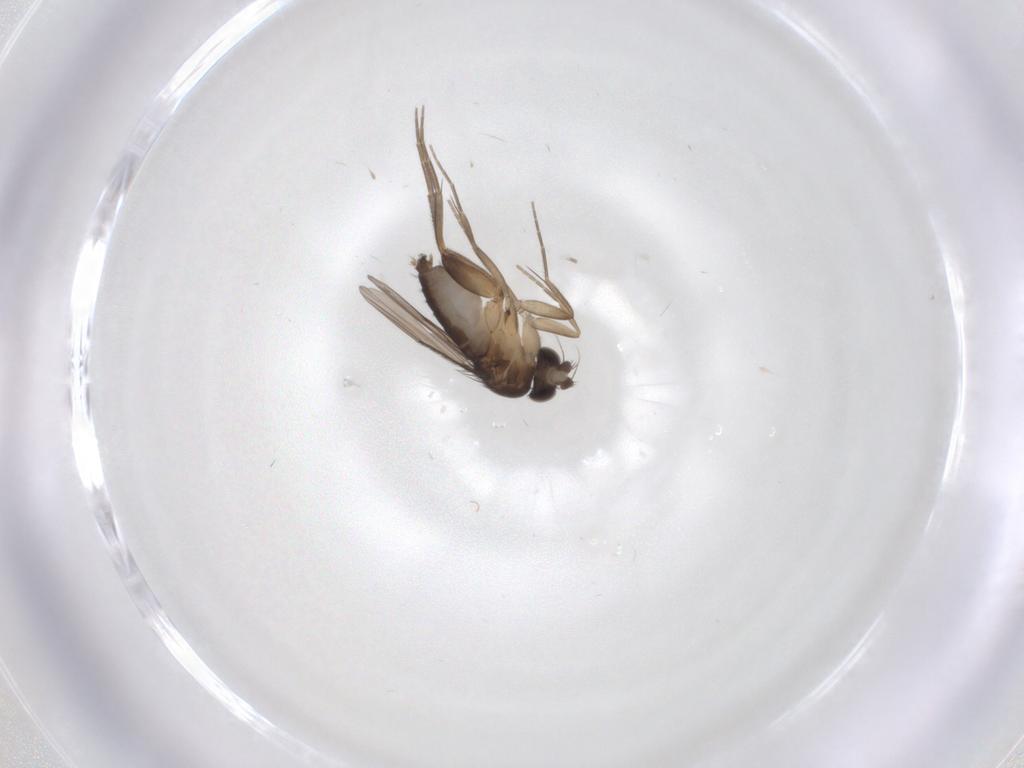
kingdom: Animalia
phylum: Arthropoda
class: Insecta
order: Diptera
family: Phoridae
